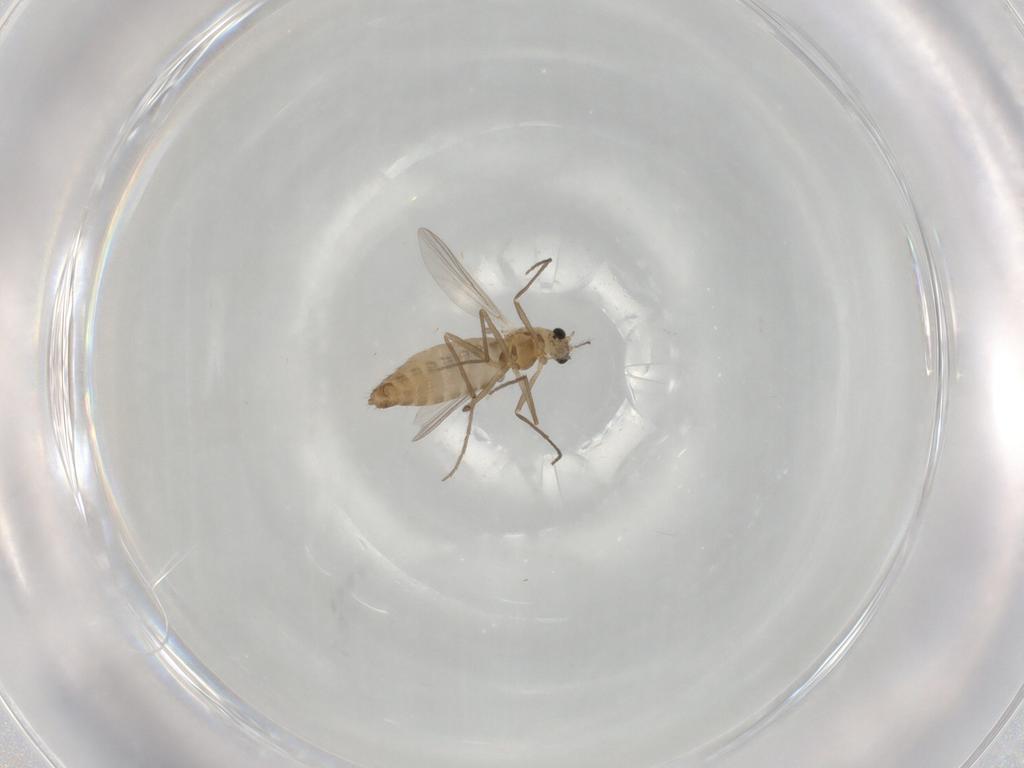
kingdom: Animalia
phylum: Arthropoda
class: Insecta
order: Diptera
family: Chironomidae
